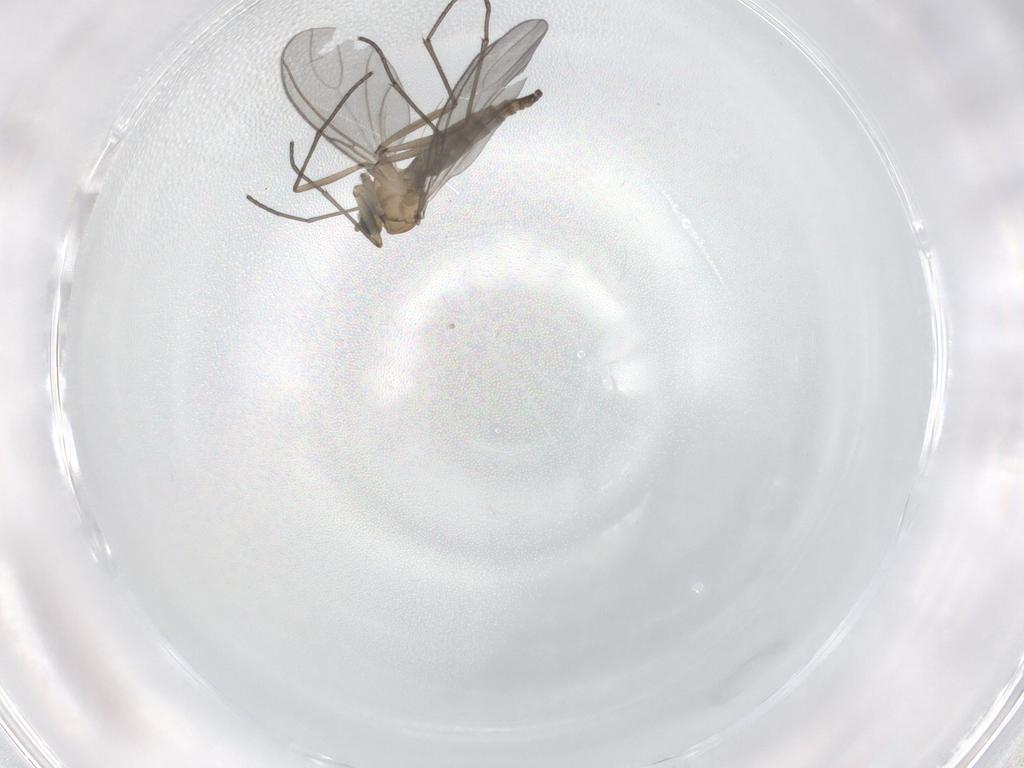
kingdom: Animalia
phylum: Arthropoda
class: Insecta
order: Diptera
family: Sciaridae
